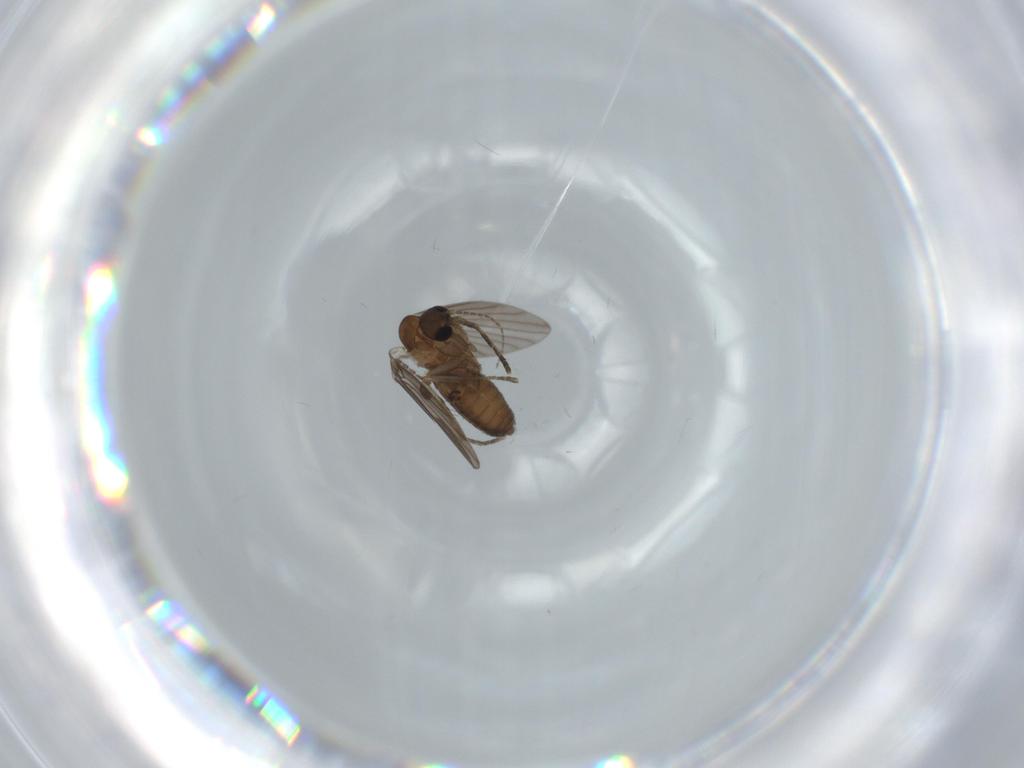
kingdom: Animalia
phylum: Arthropoda
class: Insecta
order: Diptera
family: Psychodidae
